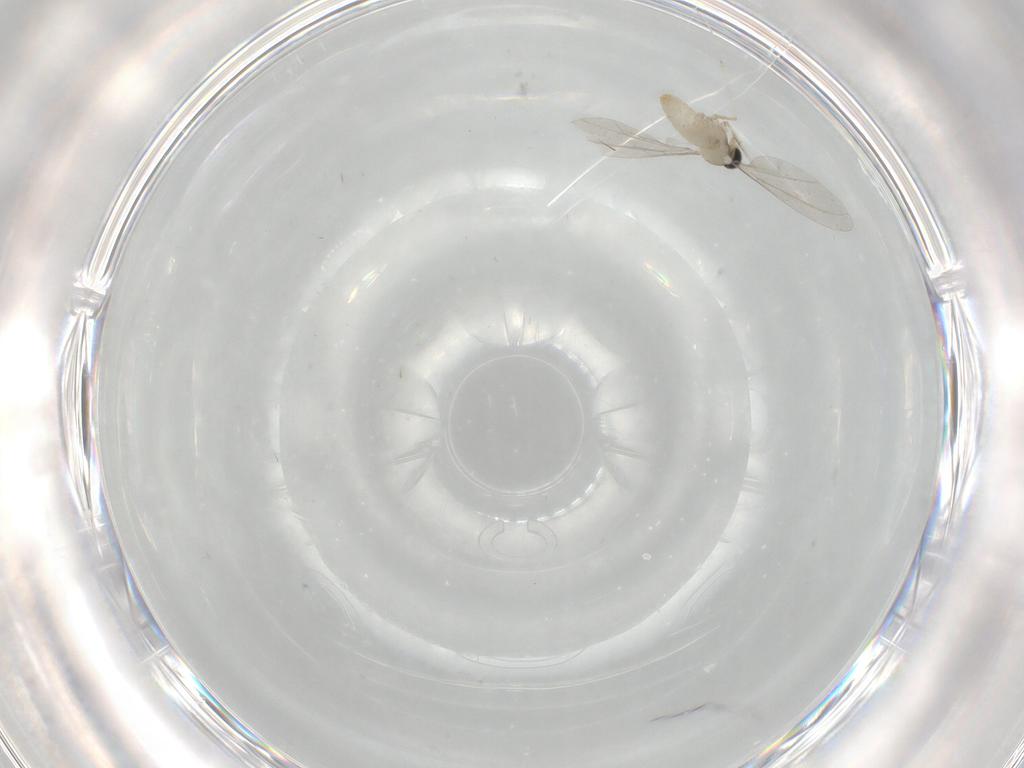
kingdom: Animalia
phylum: Arthropoda
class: Insecta
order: Diptera
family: Cecidomyiidae
